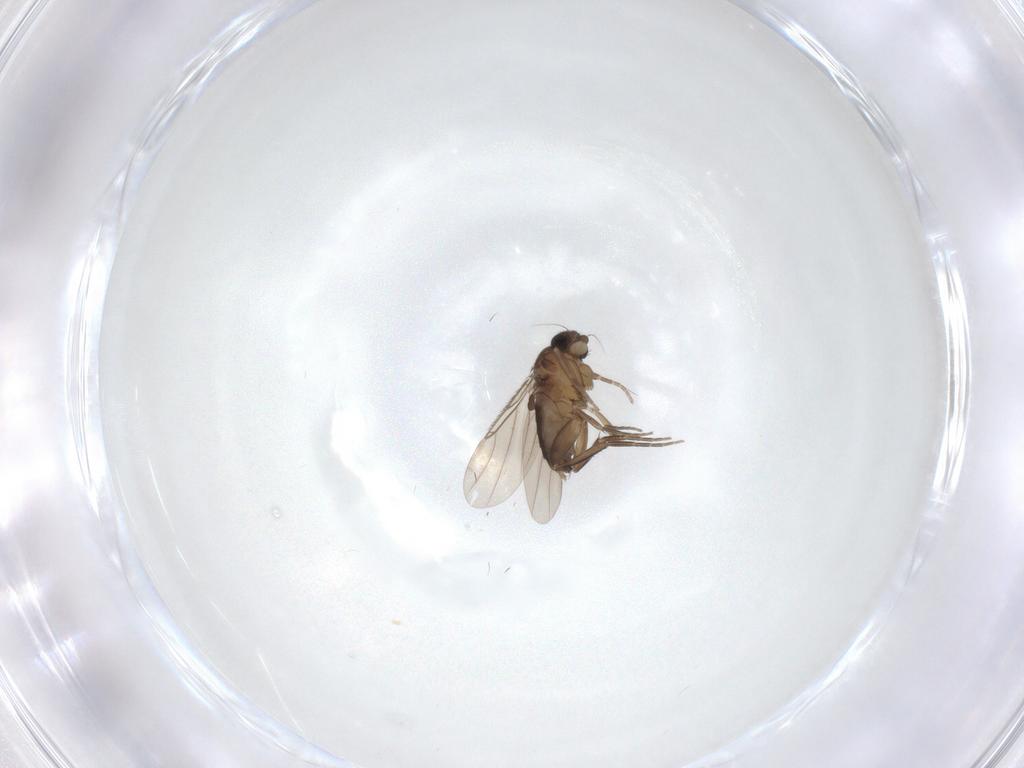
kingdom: Animalia
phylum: Arthropoda
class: Insecta
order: Diptera
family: Phoridae
